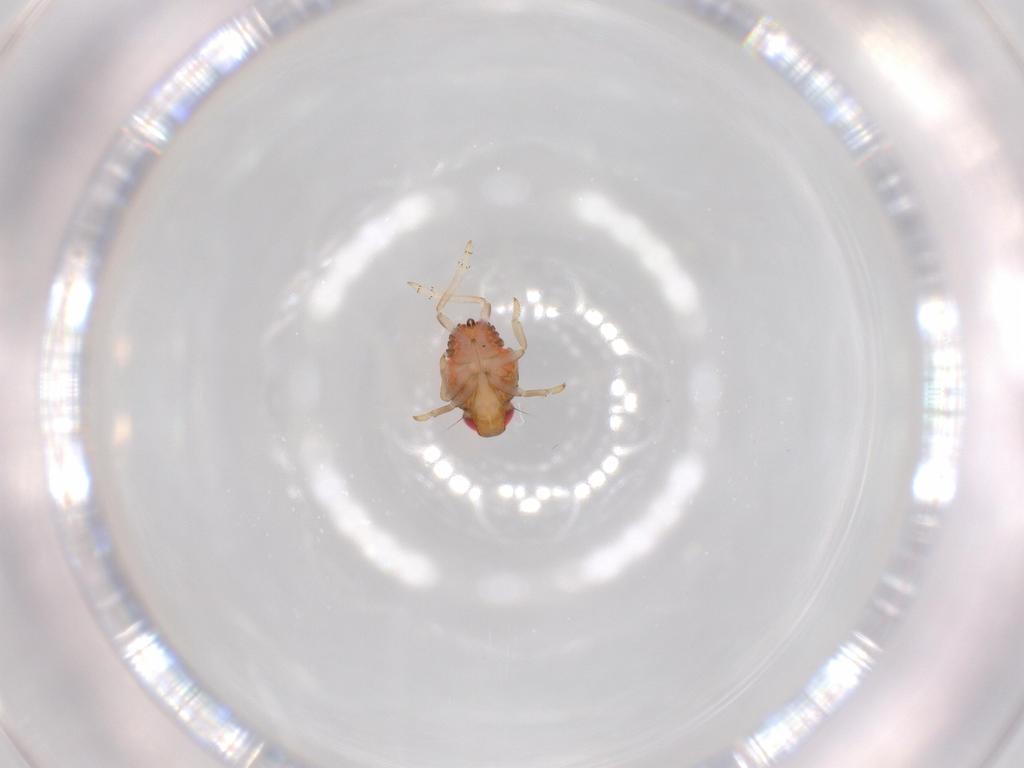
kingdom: Animalia
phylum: Arthropoda
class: Insecta
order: Hemiptera
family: Issidae
